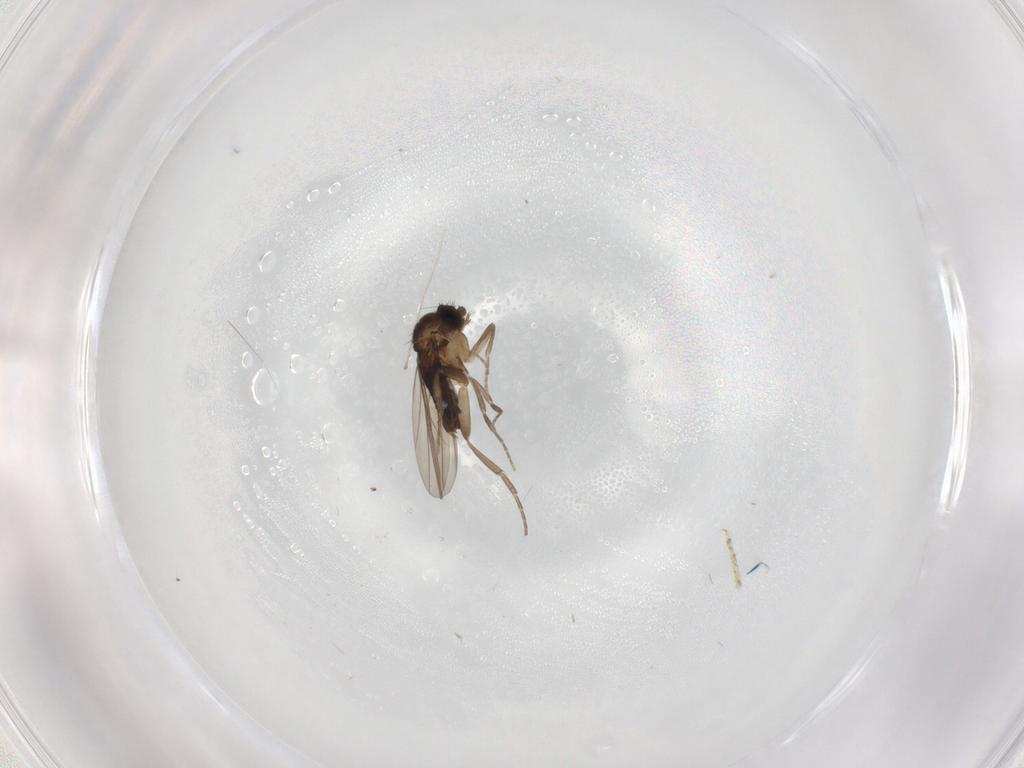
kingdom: Animalia
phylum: Arthropoda
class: Insecta
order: Diptera
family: Phoridae
